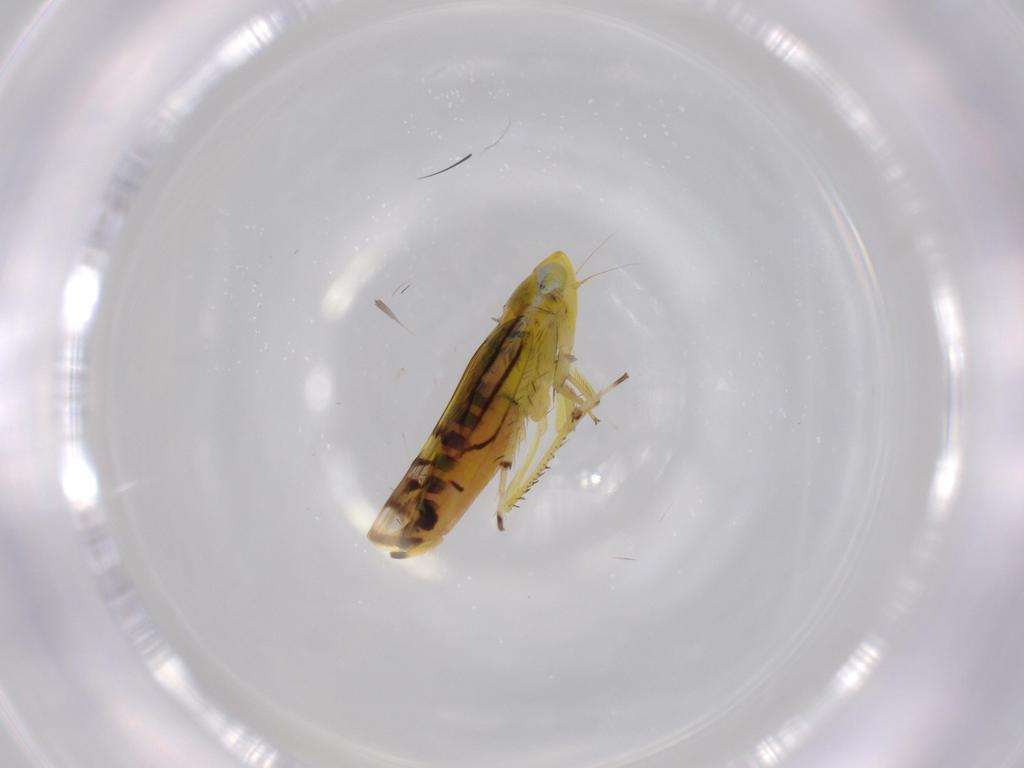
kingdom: Animalia
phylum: Arthropoda
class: Insecta
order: Hemiptera
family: Cicadellidae
